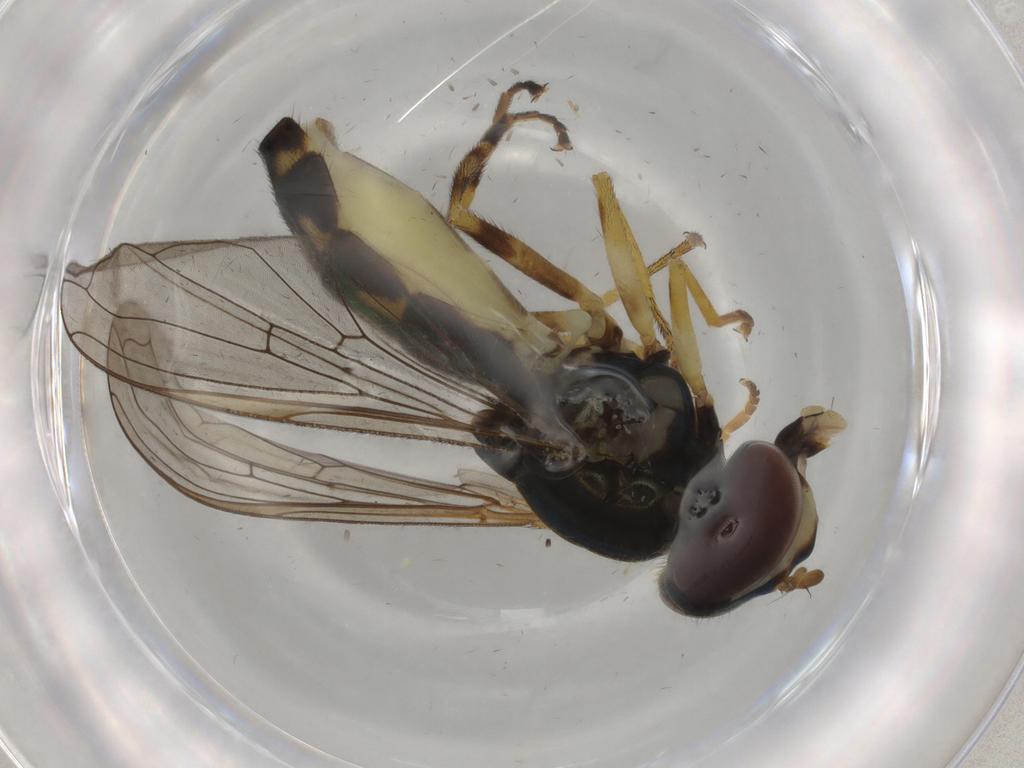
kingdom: Animalia
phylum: Arthropoda
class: Insecta
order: Diptera
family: Syrphidae
